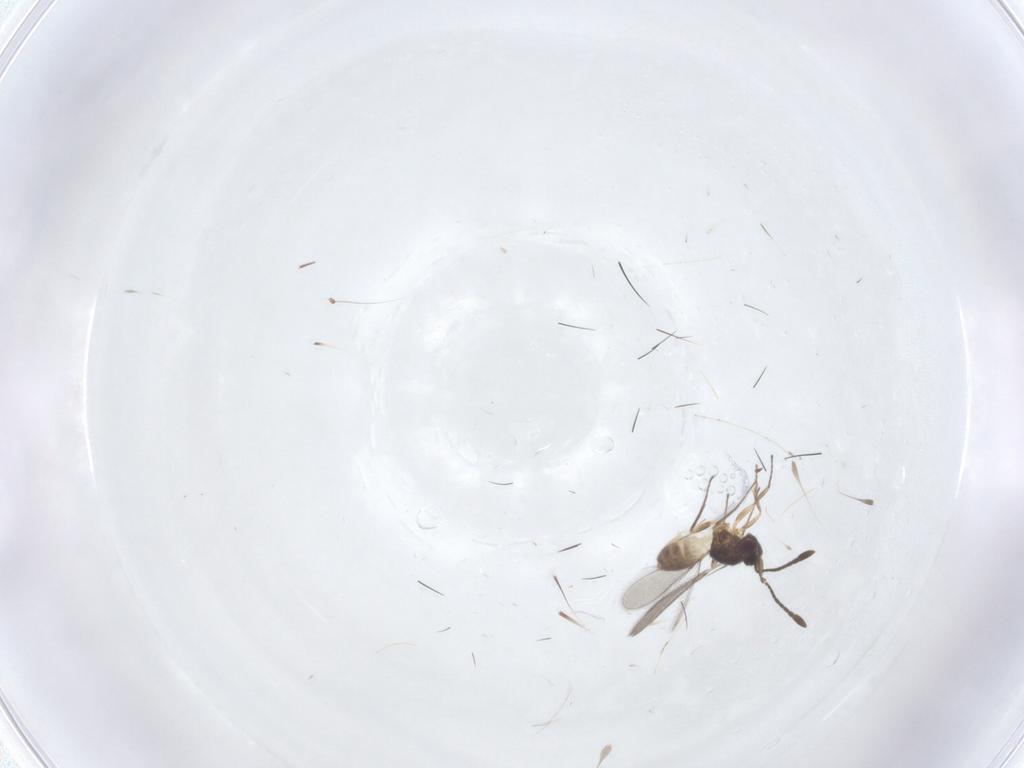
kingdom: Animalia
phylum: Arthropoda
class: Insecta
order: Hymenoptera
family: Mymaridae
